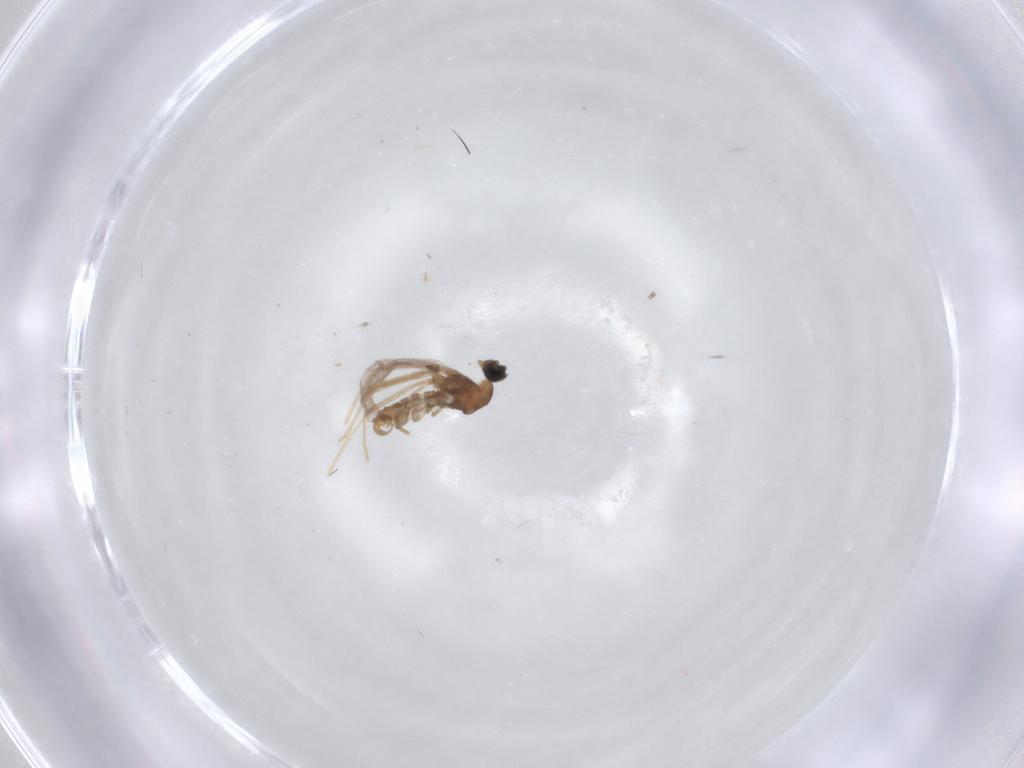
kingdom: Animalia
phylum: Arthropoda
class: Insecta
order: Diptera
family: Cecidomyiidae
